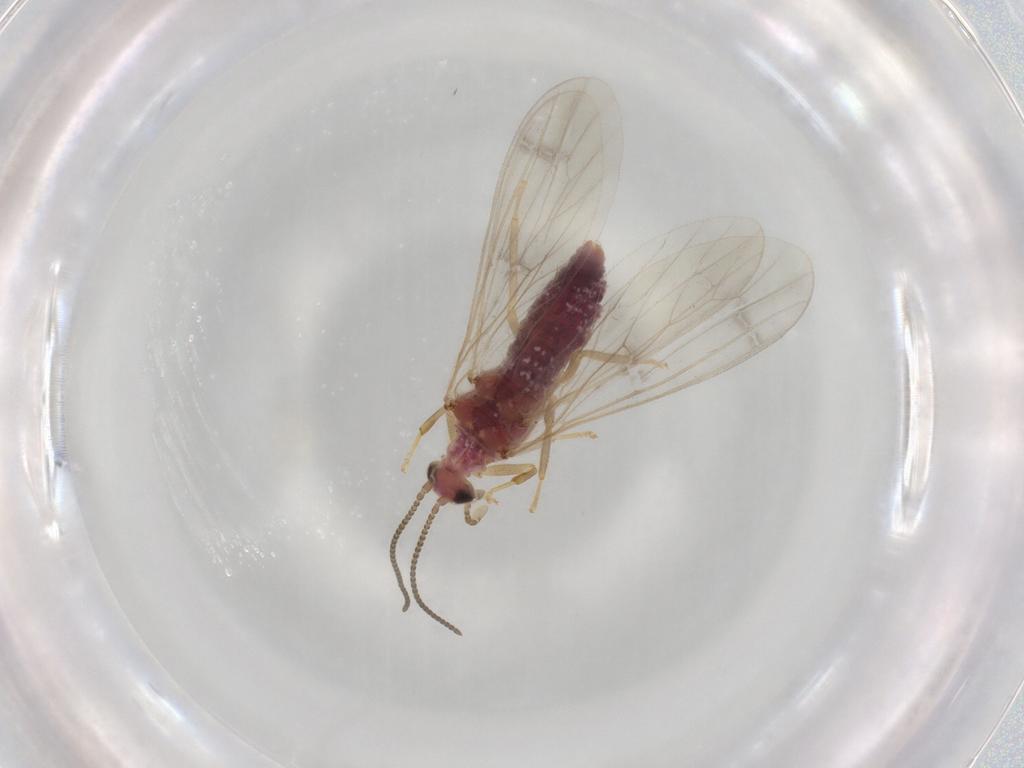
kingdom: Animalia
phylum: Arthropoda
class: Insecta
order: Neuroptera
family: Coniopterygidae
